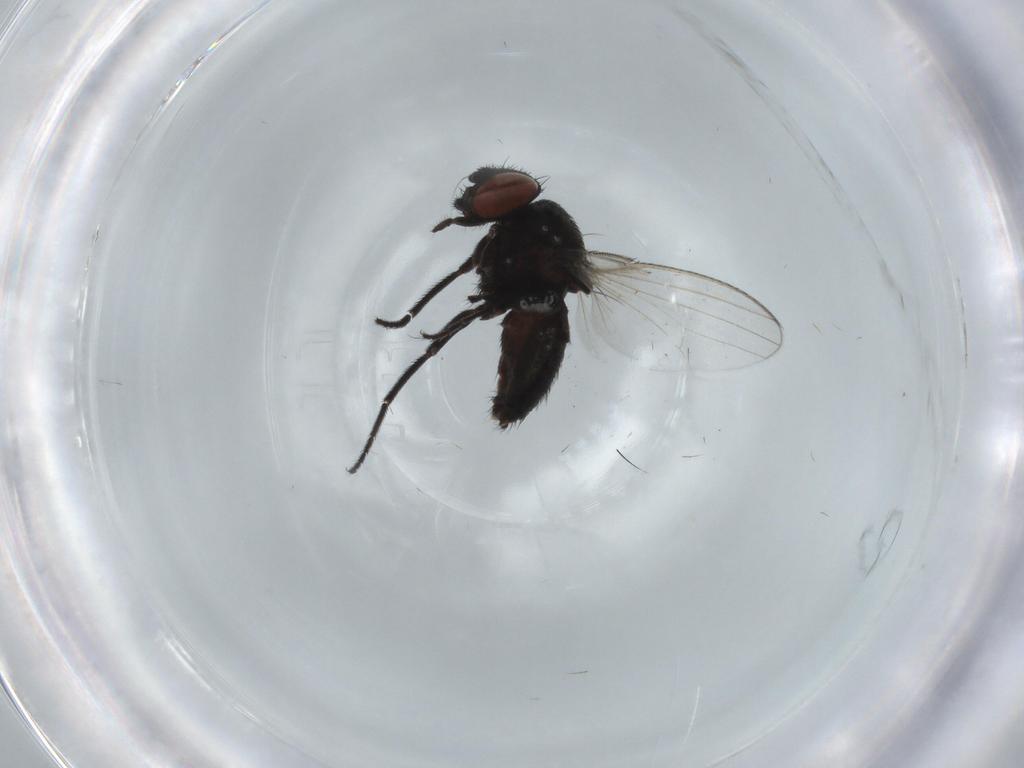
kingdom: Animalia
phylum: Arthropoda
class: Insecta
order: Diptera
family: Milichiidae
